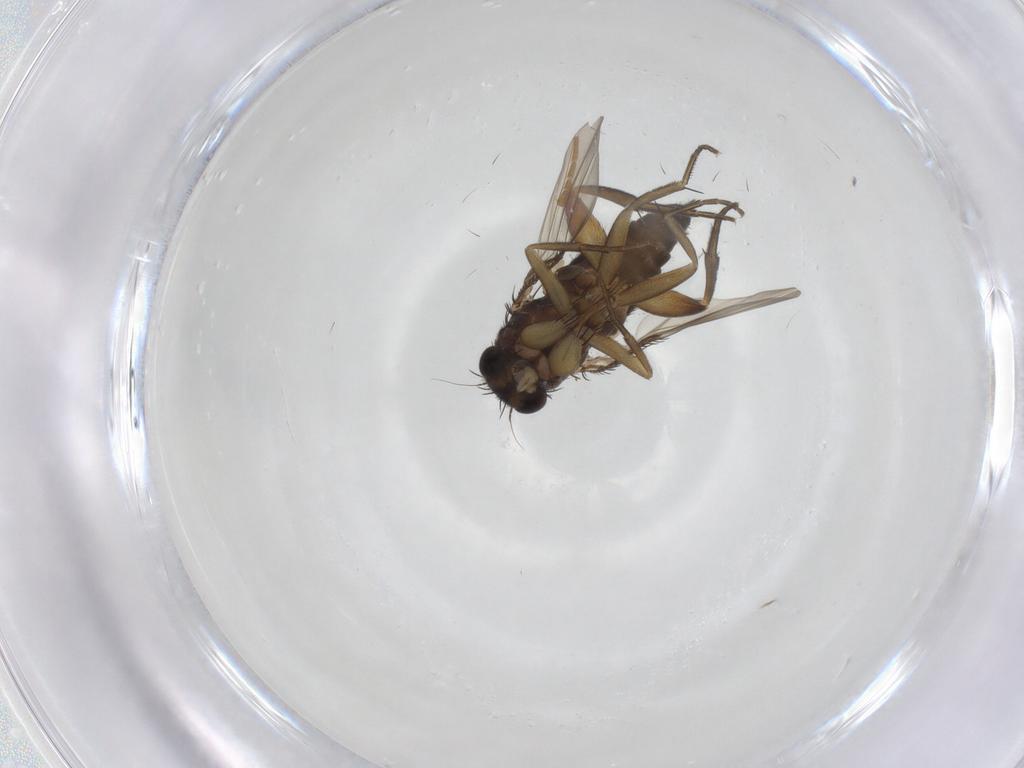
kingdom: Animalia
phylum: Arthropoda
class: Insecta
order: Diptera
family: Phoridae
